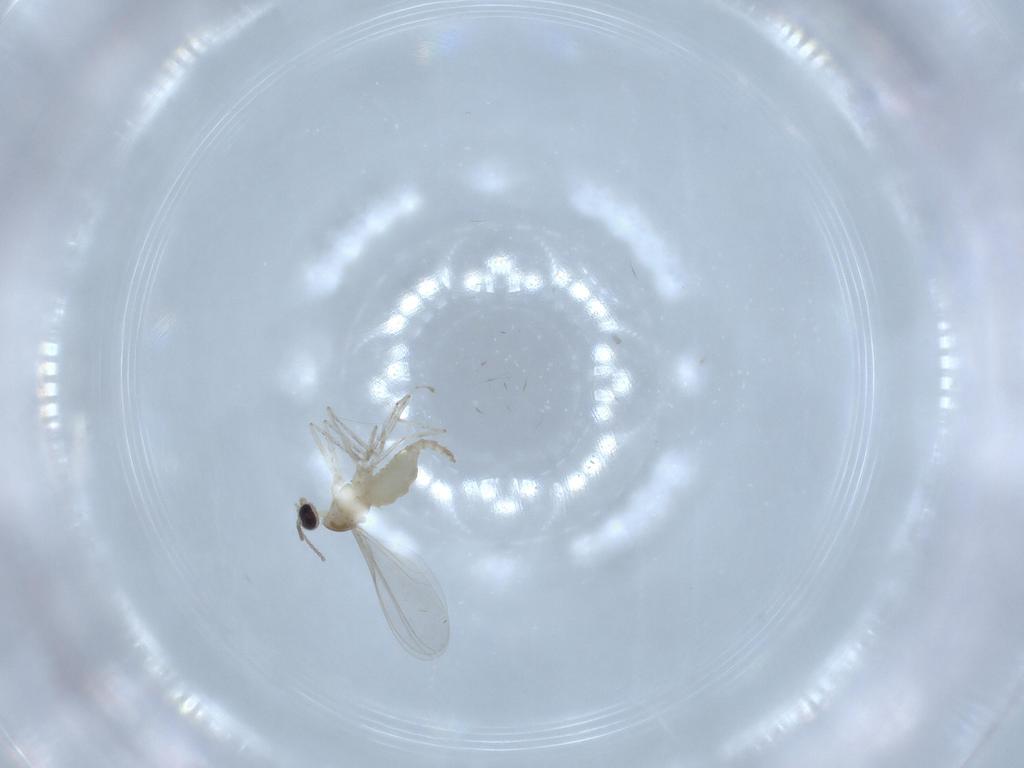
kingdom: Animalia
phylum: Arthropoda
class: Insecta
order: Diptera
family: Cecidomyiidae
